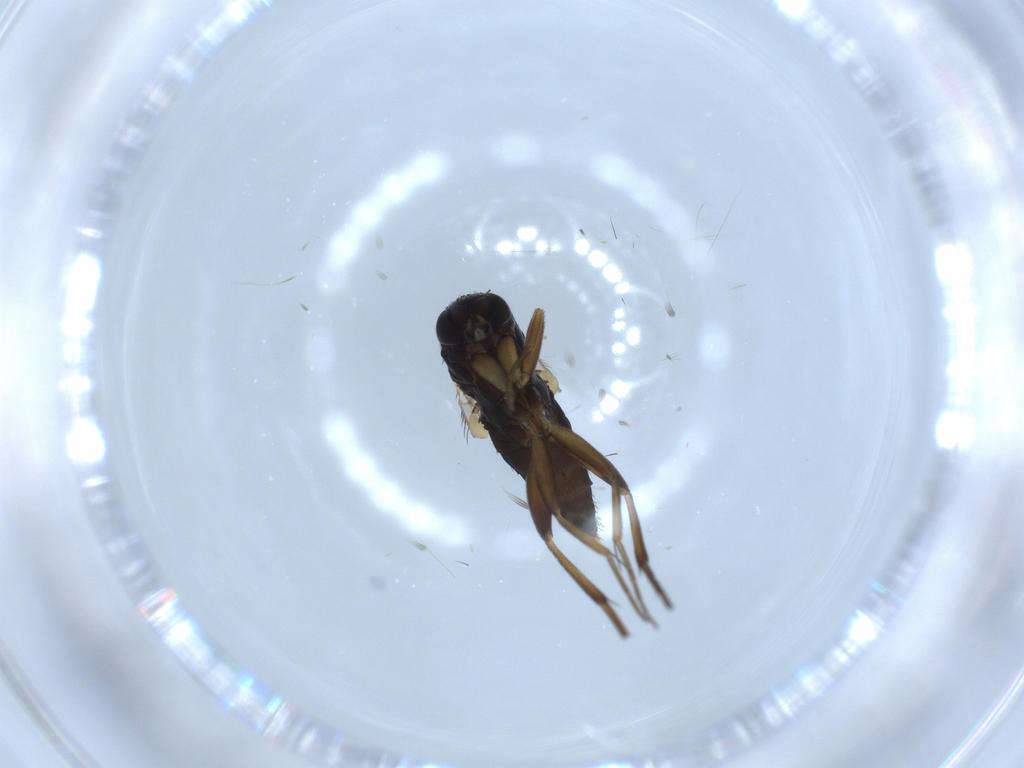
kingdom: Animalia
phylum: Arthropoda
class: Insecta
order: Diptera
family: Phoridae
